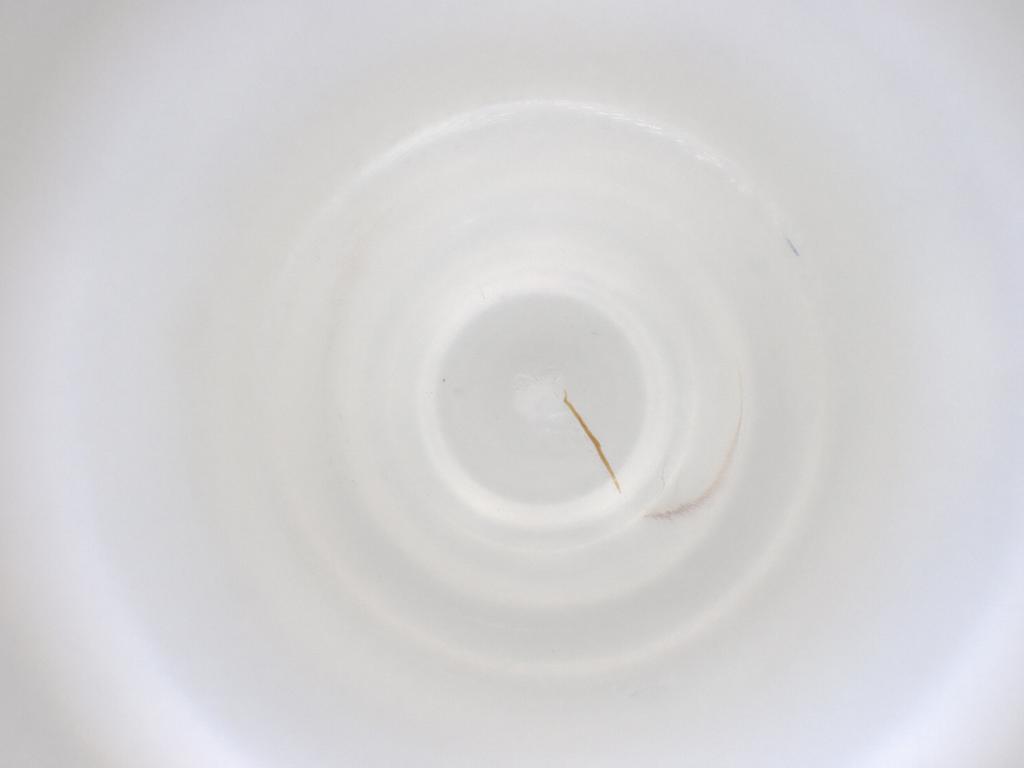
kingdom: Animalia
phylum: Arthropoda
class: Insecta
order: Diptera
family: Cecidomyiidae
